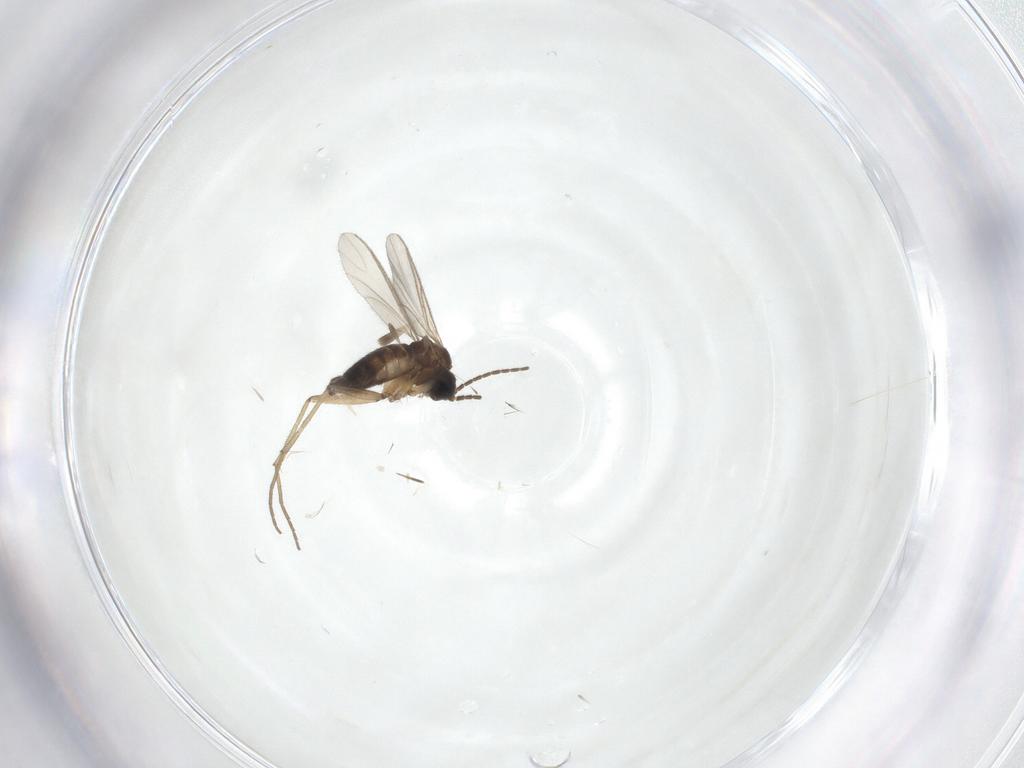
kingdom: Animalia
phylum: Arthropoda
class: Insecta
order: Diptera
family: Sciaridae
